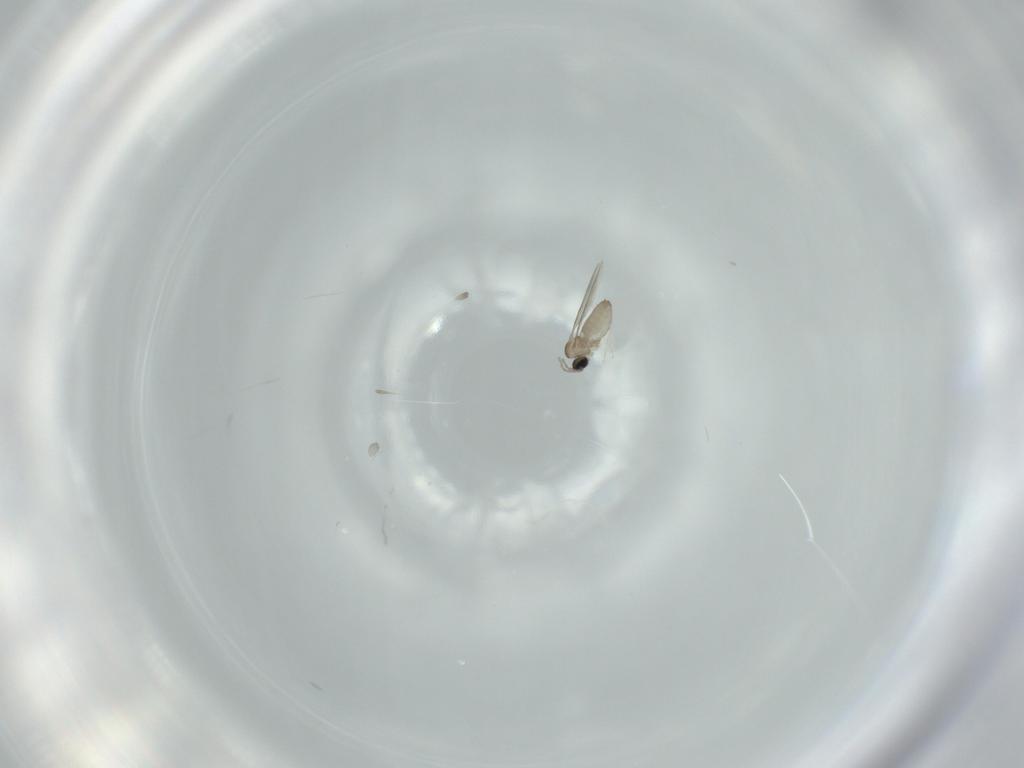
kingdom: Animalia
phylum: Arthropoda
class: Insecta
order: Diptera
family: Milichiidae
